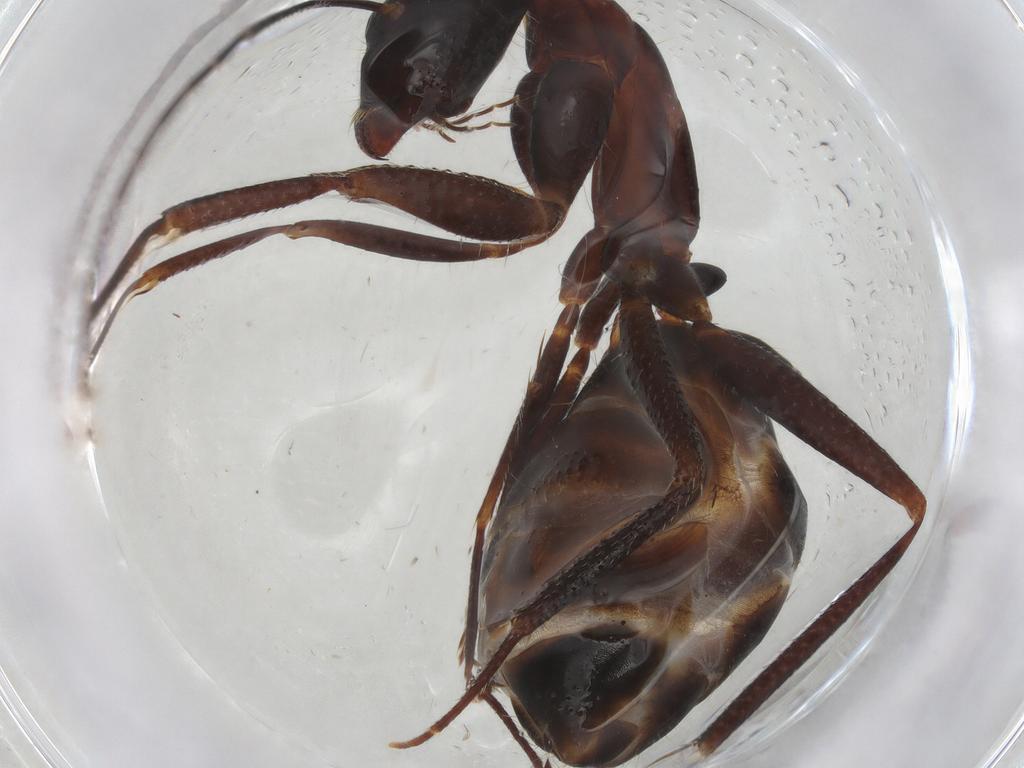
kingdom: Animalia
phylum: Arthropoda
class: Insecta
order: Hymenoptera
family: Formicidae
